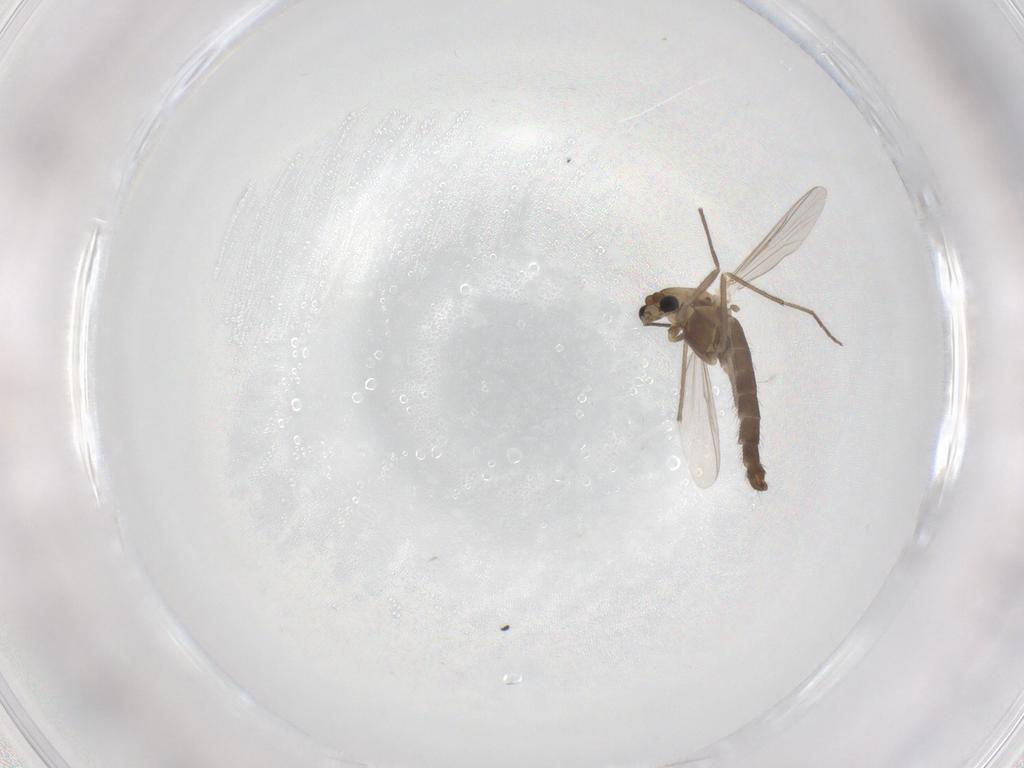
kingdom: Animalia
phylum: Arthropoda
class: Insecta
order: Diptera
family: Chironomidae
